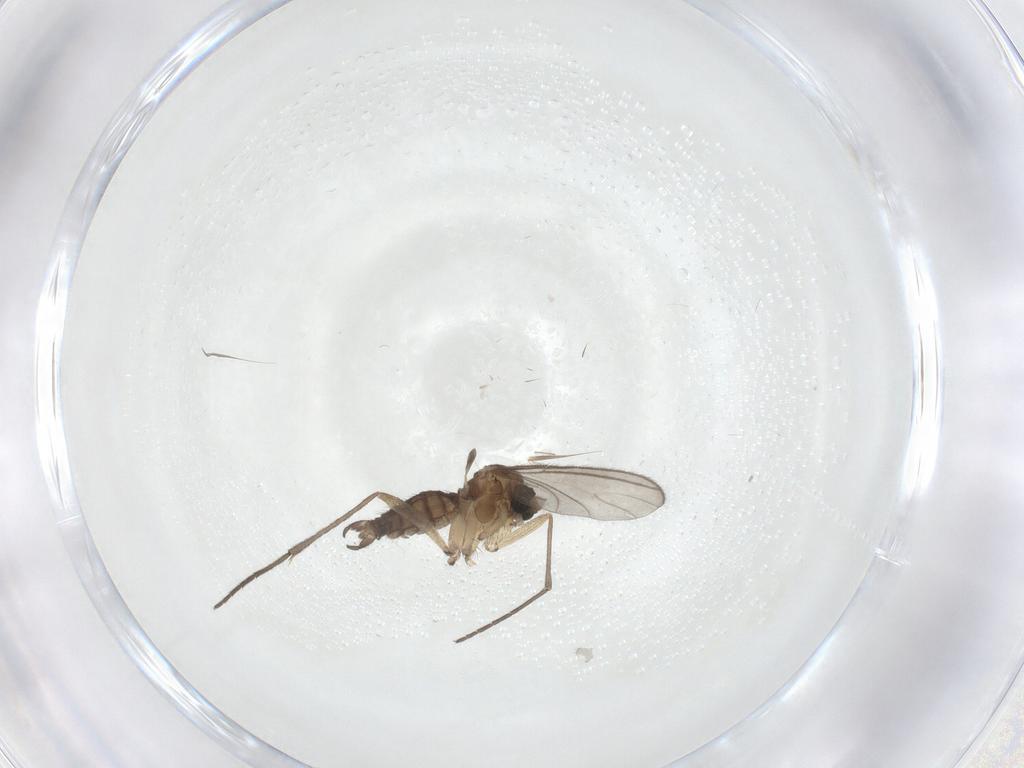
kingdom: Animalia
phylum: Arthropoda
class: Insecta
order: Diptera
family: Sciaridae
